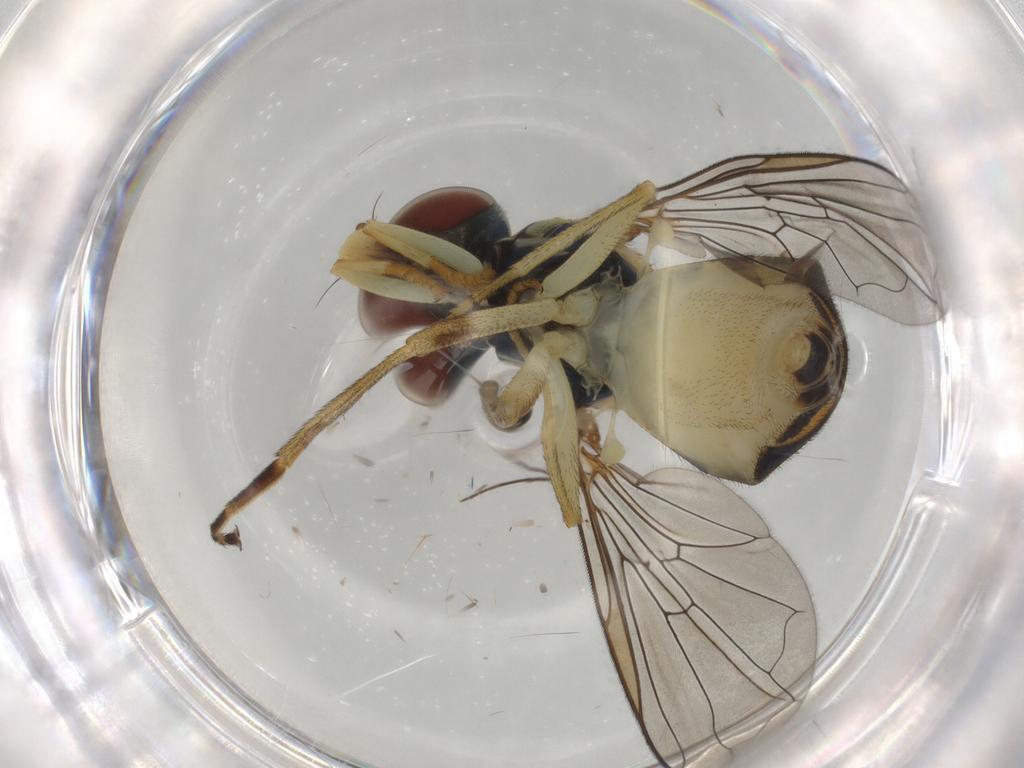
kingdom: Animalia
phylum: Arthropoda
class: Insecta
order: Diptera
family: Syrphidae
